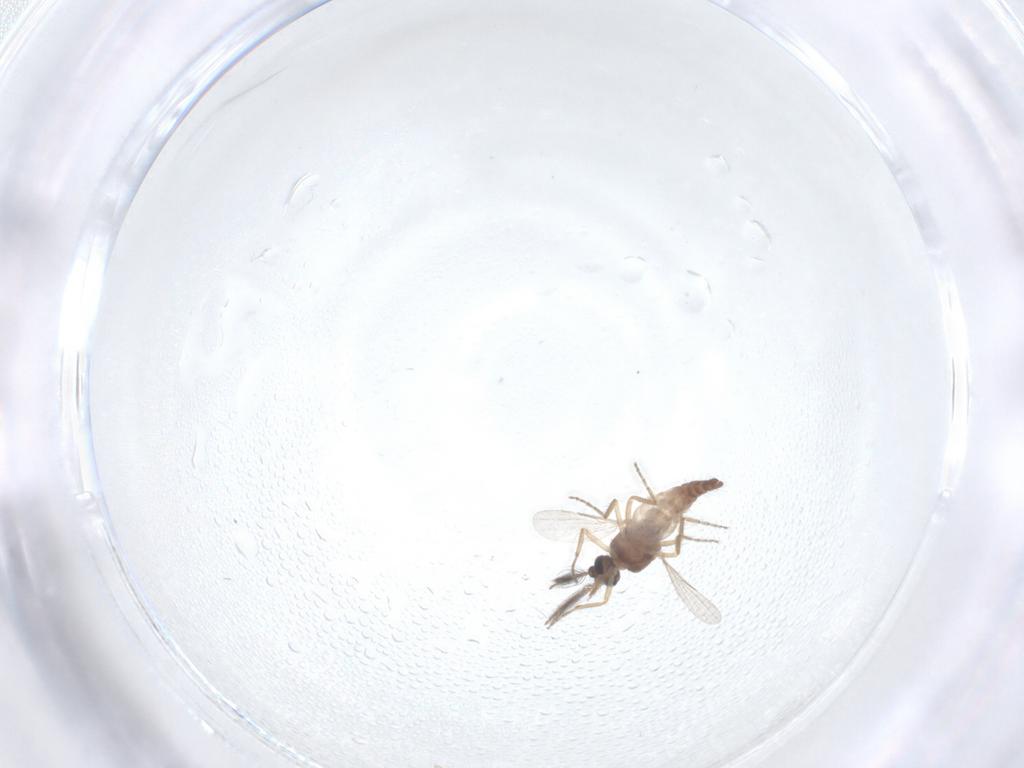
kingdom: Animalia
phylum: Arthropoda
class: Insecta
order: Diptera
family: Ceratopogonidae
